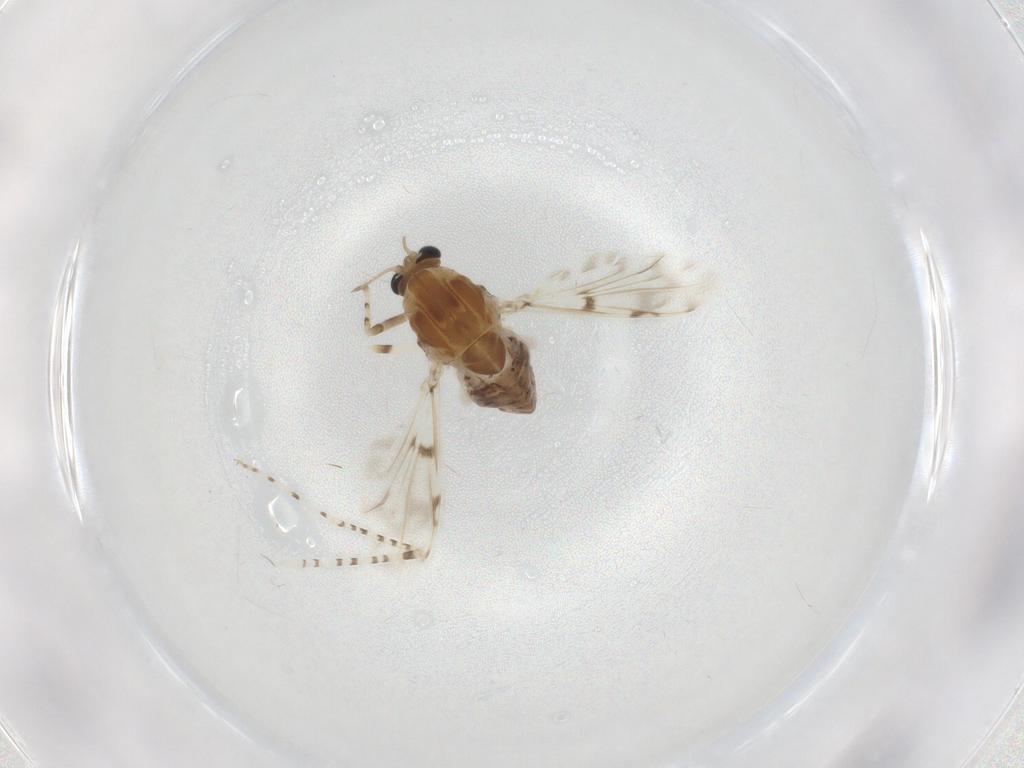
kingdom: Animalia
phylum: Arthropoda
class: Insecta
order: Diptera
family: Chironomidae
